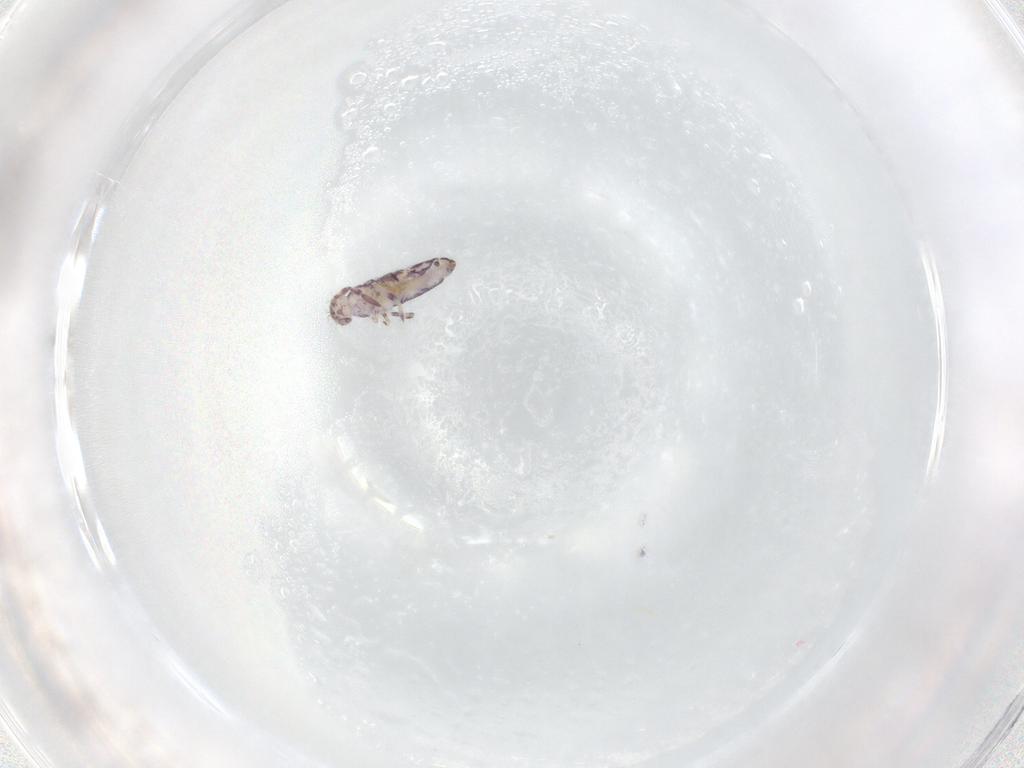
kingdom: Animalia
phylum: Arthropoda
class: Collembola
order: Entomobryomorpha
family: Entomobryidae
